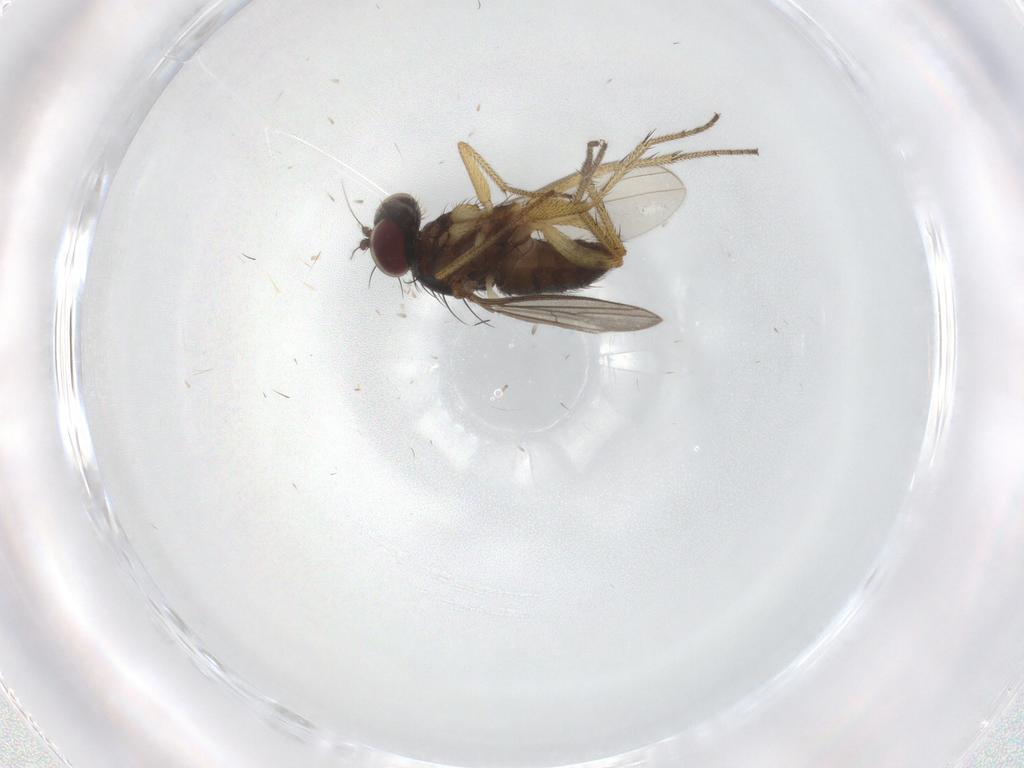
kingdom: Animalia
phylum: Arthropoda
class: Insecta
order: Diptera
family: Dolichopodidae
